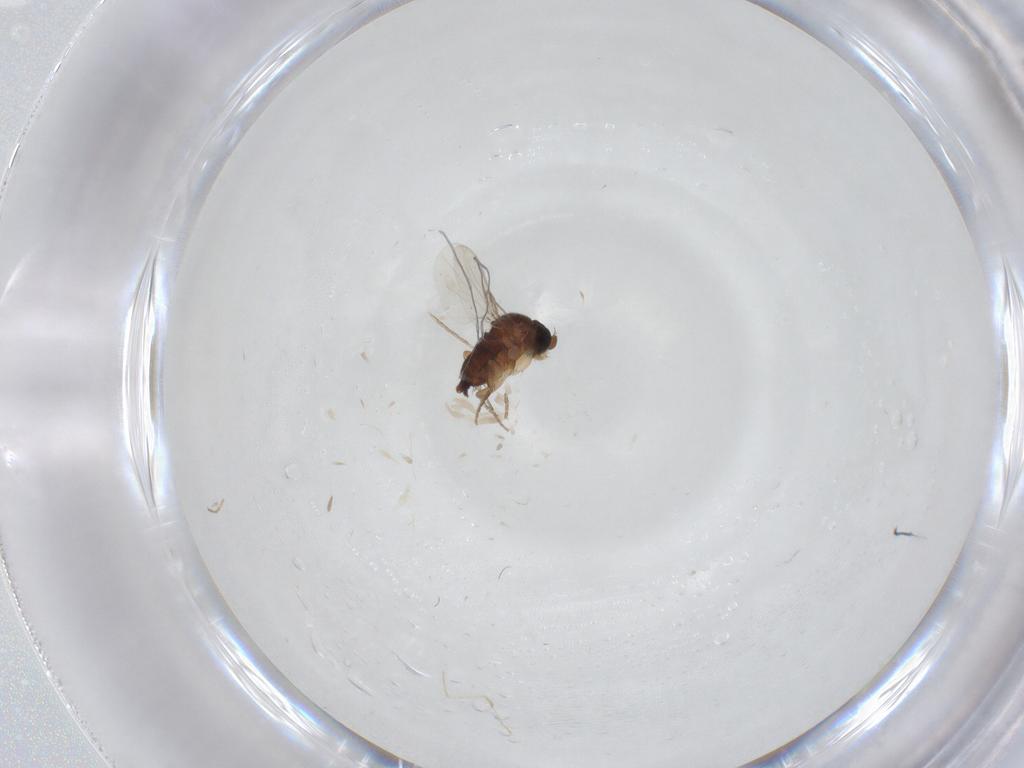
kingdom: Animalia
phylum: Arthropoda
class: Insecta
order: Diptera
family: Phoridae
